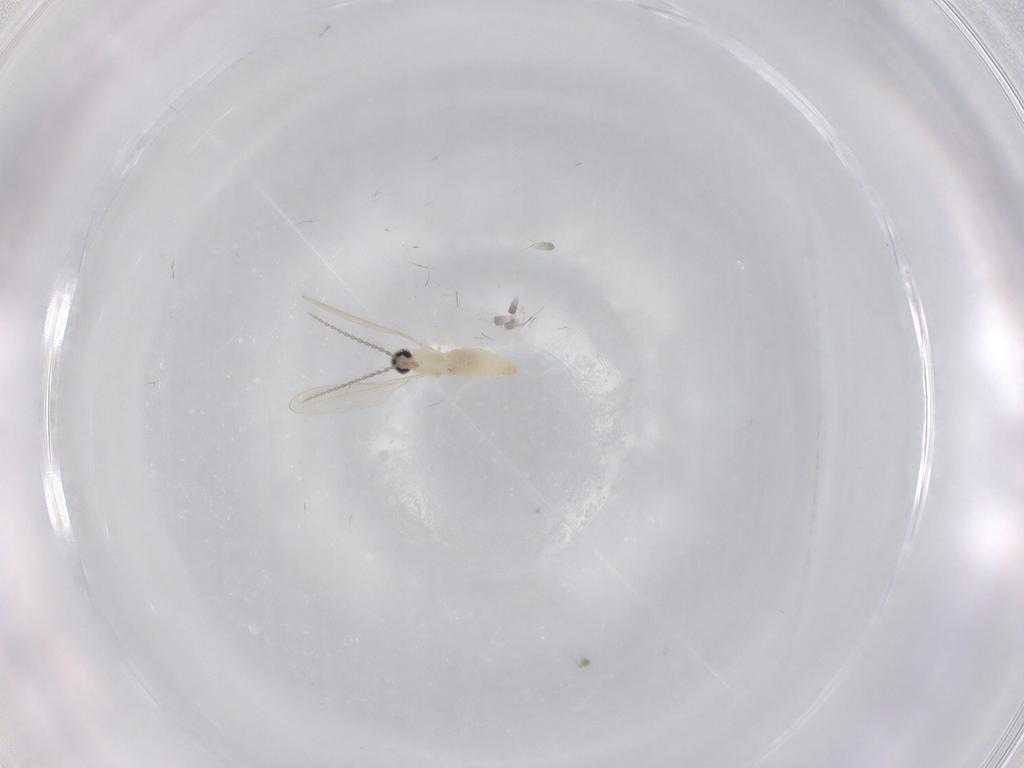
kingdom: Animalia
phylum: Arthropoda
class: Insecta
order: Diptera
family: Cecidomyiidae
